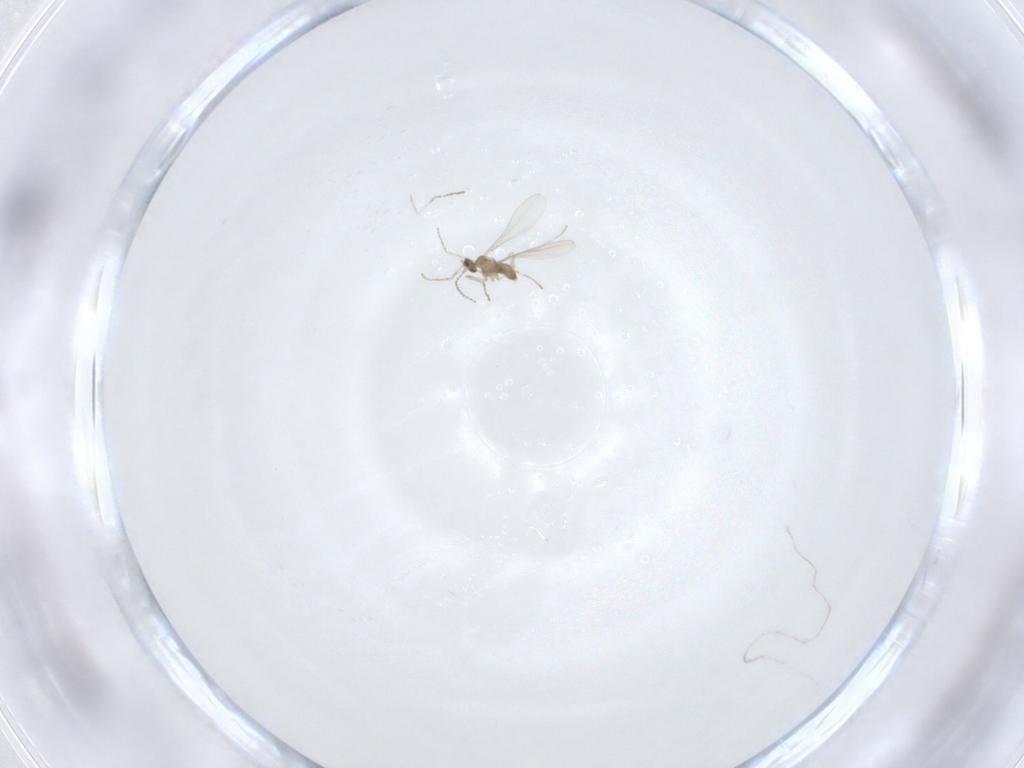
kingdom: Animalia
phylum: Arthropoda
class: Insecta
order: Diptera
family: Cecidomyiidae
